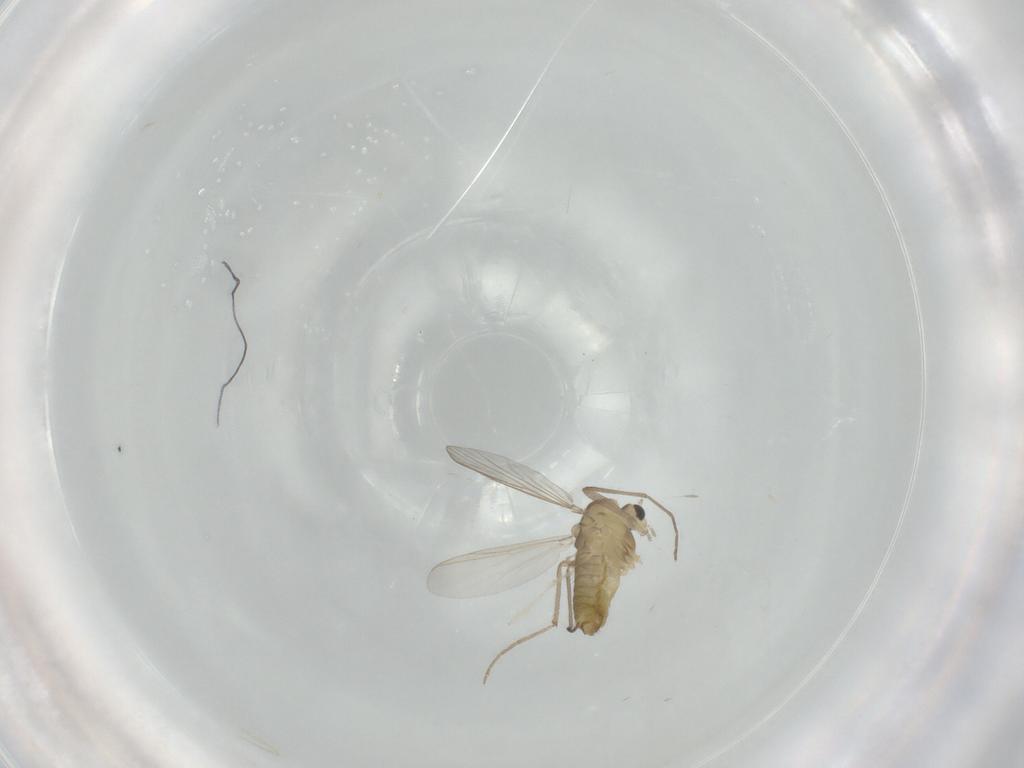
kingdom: Animalia
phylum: Arthropoda
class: Insecta
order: Diptera
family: Chironomidae
